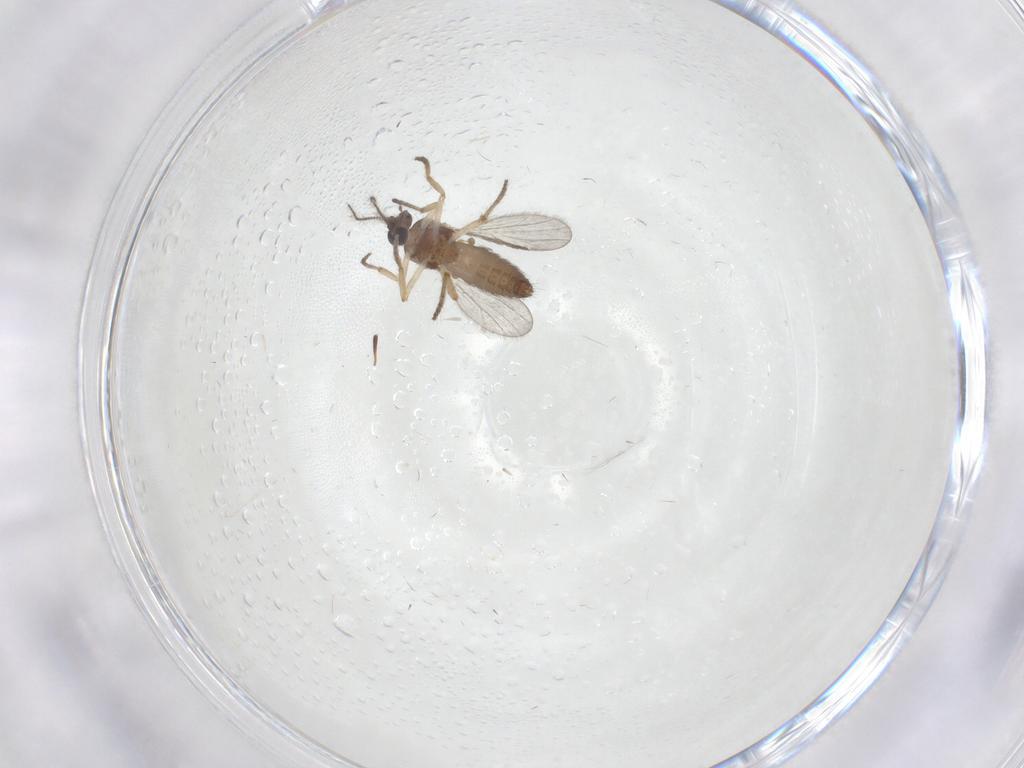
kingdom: Animalia
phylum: Arthropoda
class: Insecta
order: Diptera
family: Ceratopogonidae
